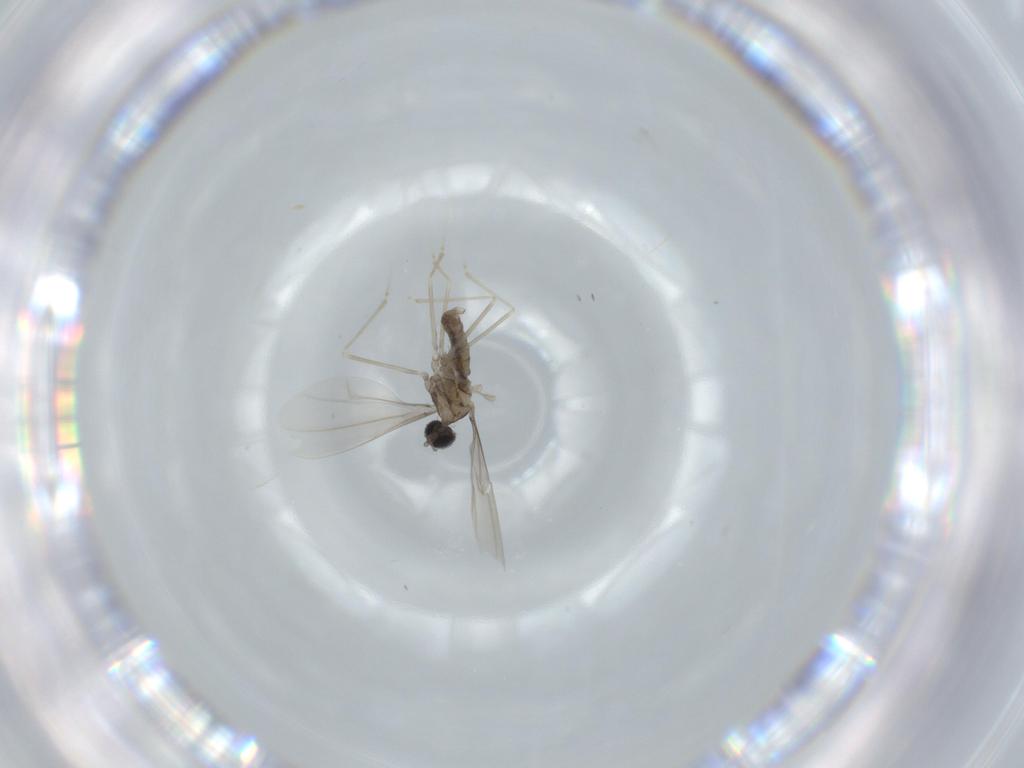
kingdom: Animalia
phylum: Arthropoda
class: Insecta
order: Diptera
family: Cecidomyiidae
